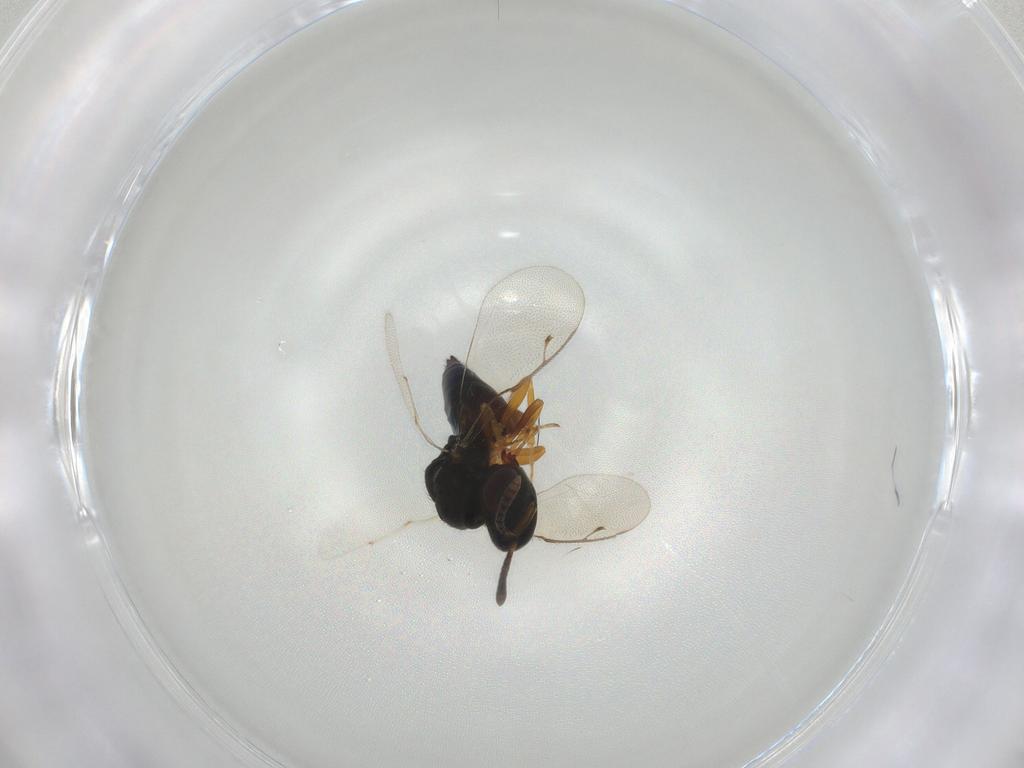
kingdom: Animalia
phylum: Arthropoda
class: Insecta
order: Hymenoptera
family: Pteromalidae
